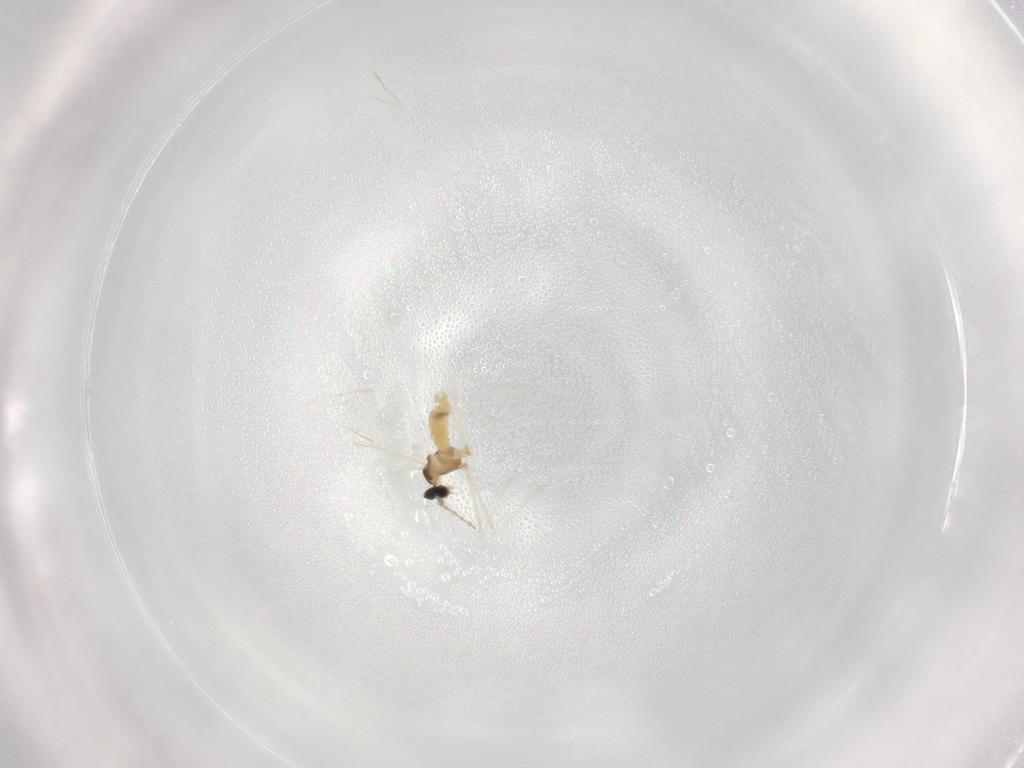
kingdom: Animalia
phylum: Arthropoda
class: Insecta
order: Diptera
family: Cecidomyiidae
